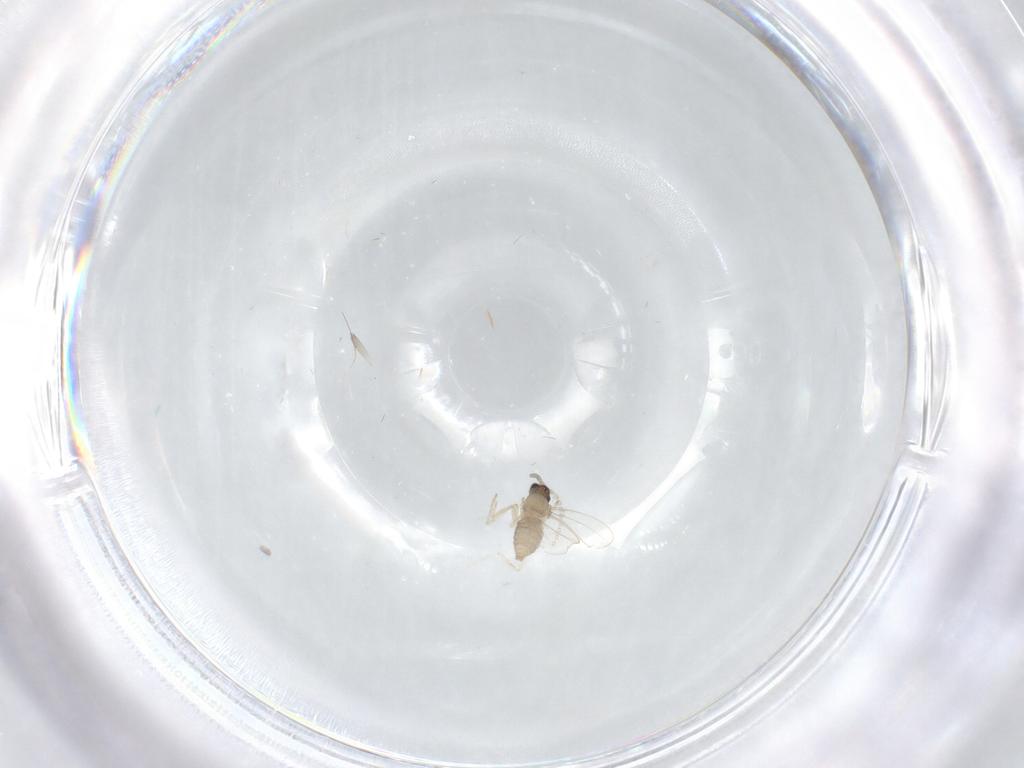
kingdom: Animalia
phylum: Arthropoda
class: Insecta
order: Diptera
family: Cecidomyiidae
